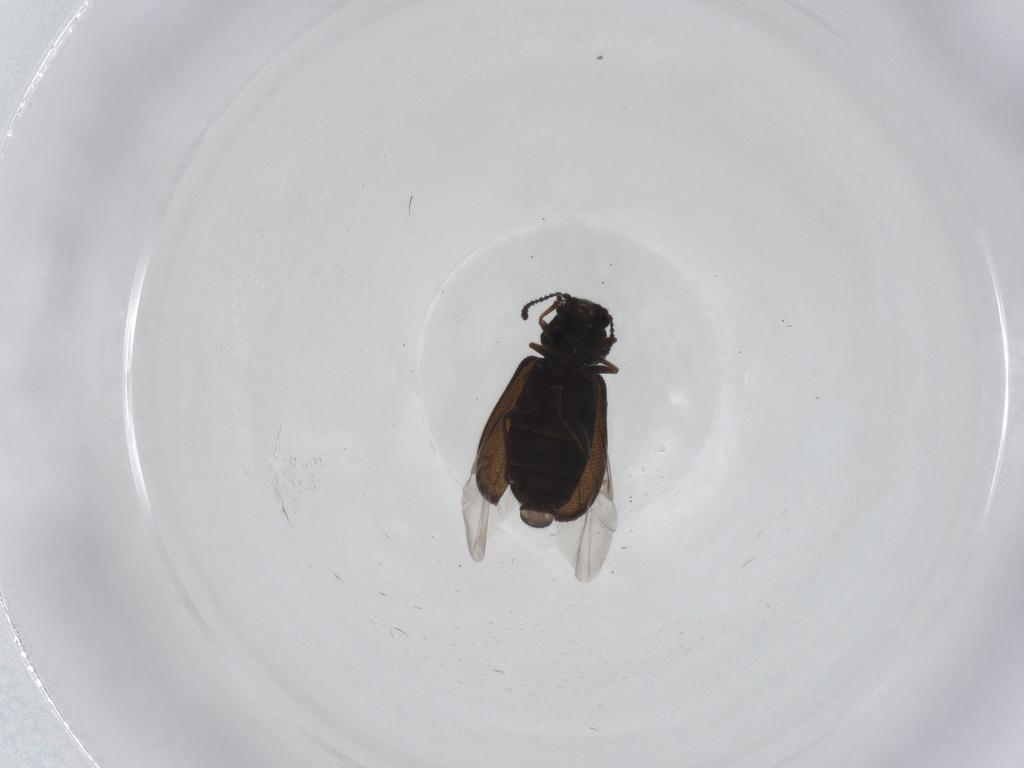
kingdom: Animalia
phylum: Arthropoda
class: Insecta
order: Coleoptera
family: Melyridae
